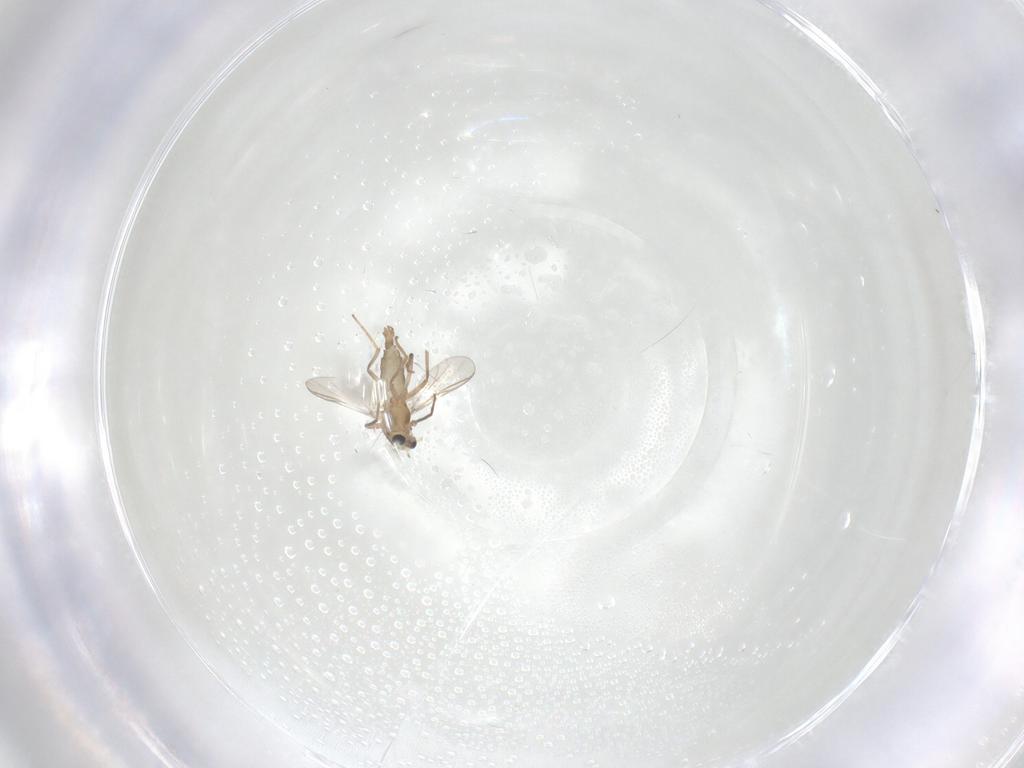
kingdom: Animalia
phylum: Arthropoda
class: Insecta
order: Diptera
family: Chironomidae
